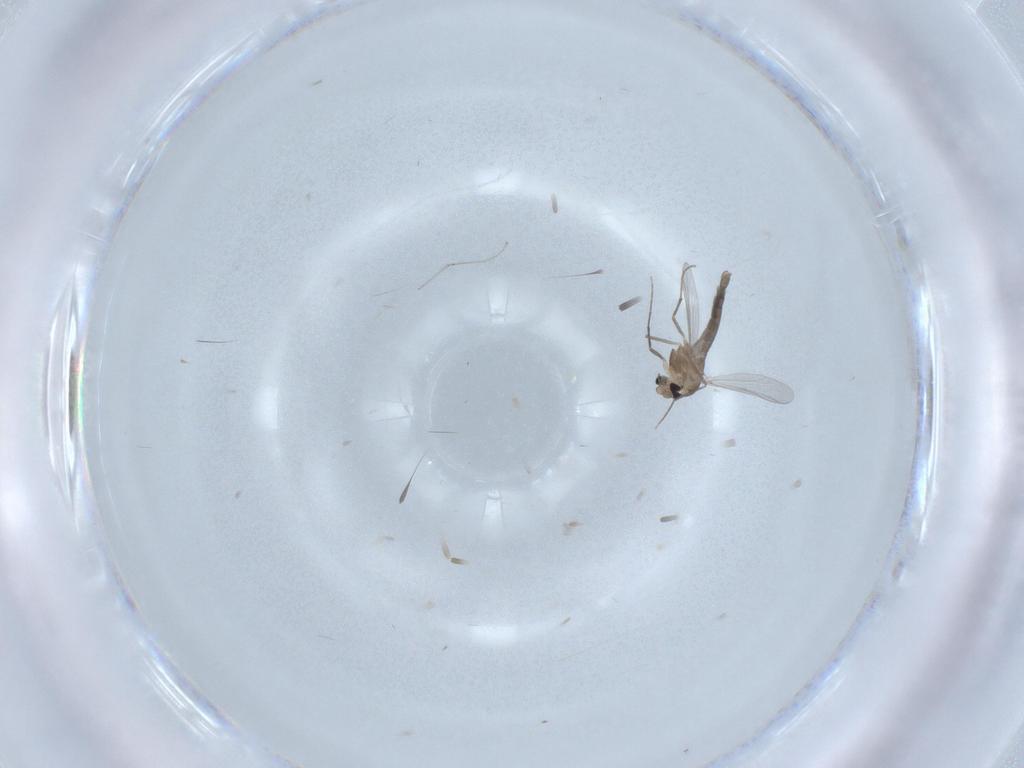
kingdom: Animalia
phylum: Arthropoda
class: Insecta
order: Diptera
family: Chironomidae
